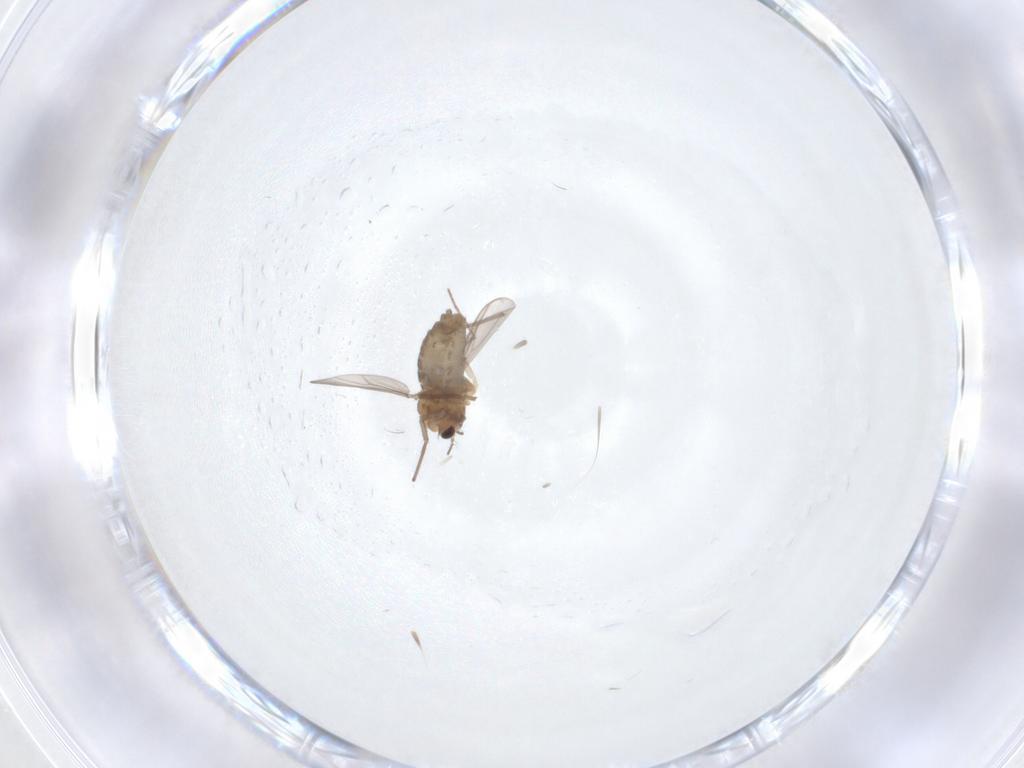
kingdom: Animalia
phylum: Arthropoda
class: Insecta
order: Diptera
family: Chironomidae
